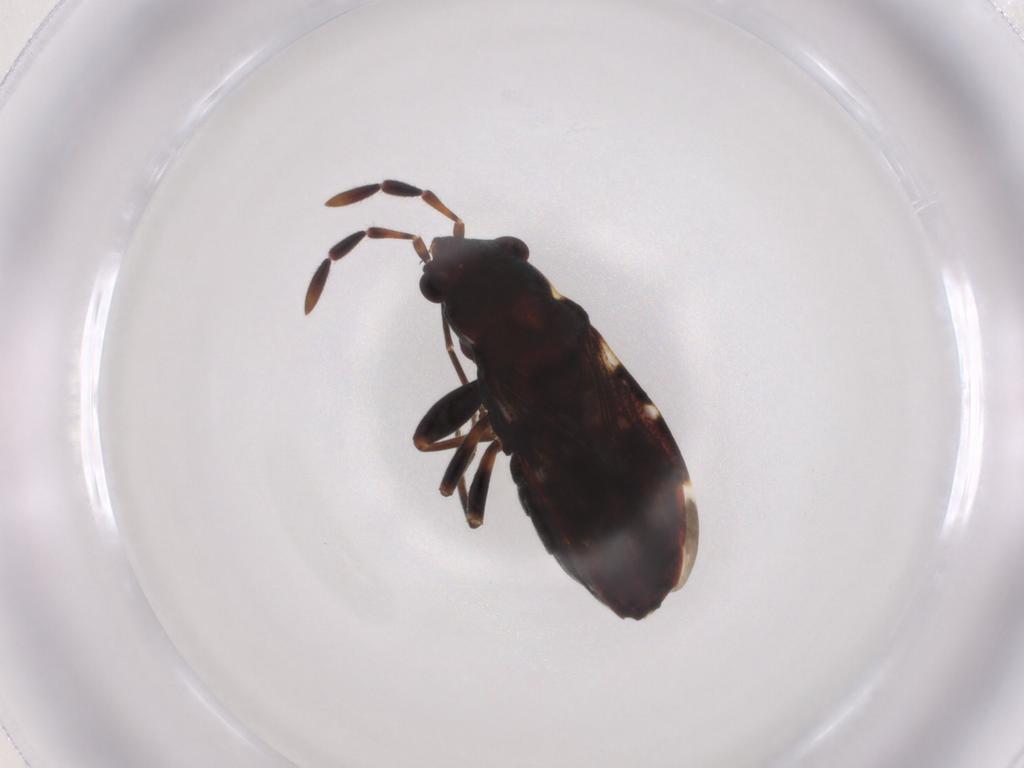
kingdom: Animalia
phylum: Arthropoda
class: Insecta
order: Hemiptera
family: Rhyparochromidae
